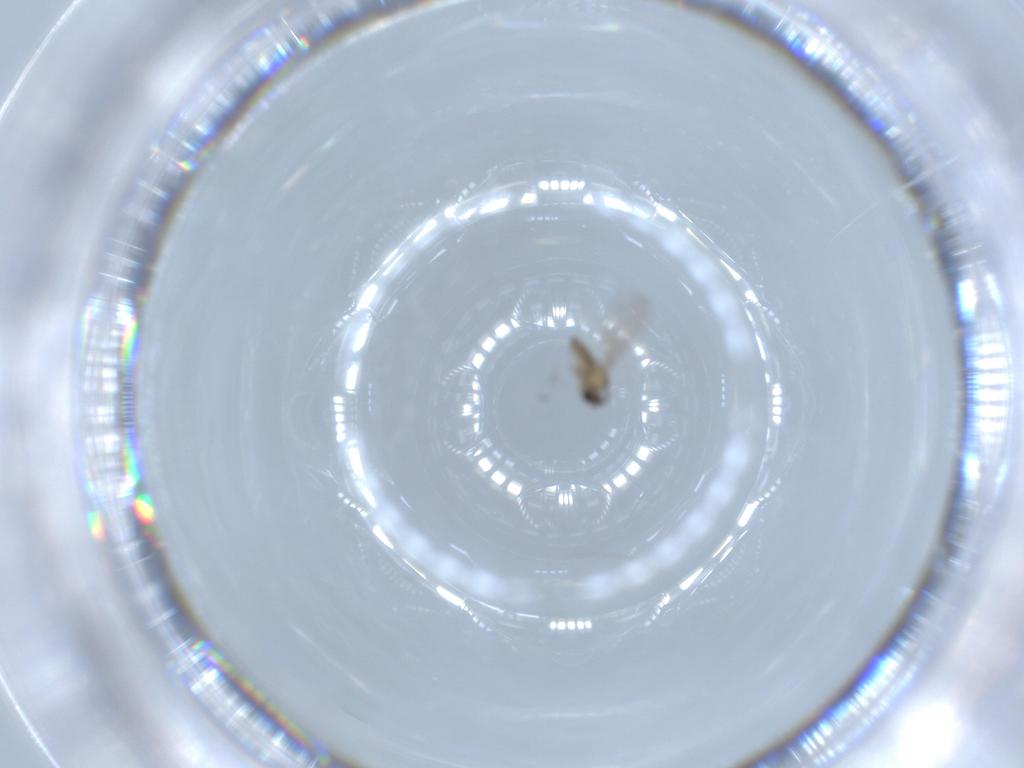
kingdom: Animalia
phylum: Arthropoda
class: Insecta
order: Diptera
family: Cecidomyiidae
